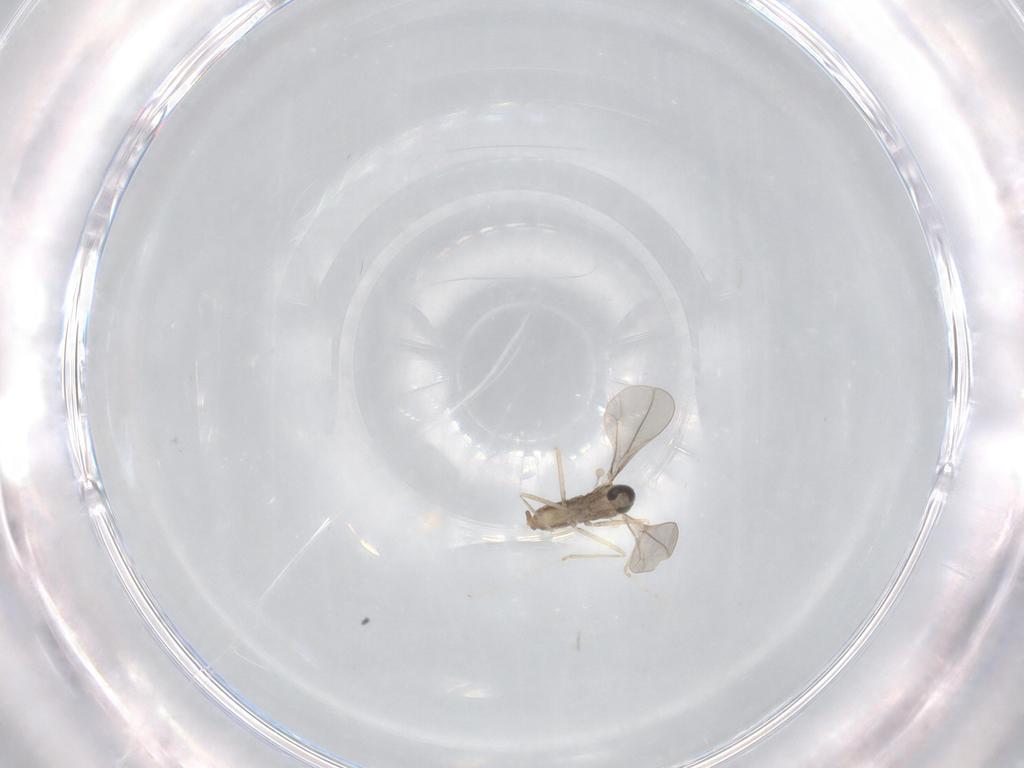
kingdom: Animalia
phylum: Arthropoda
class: Insecta
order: Diptera
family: Cecidomyiidae
